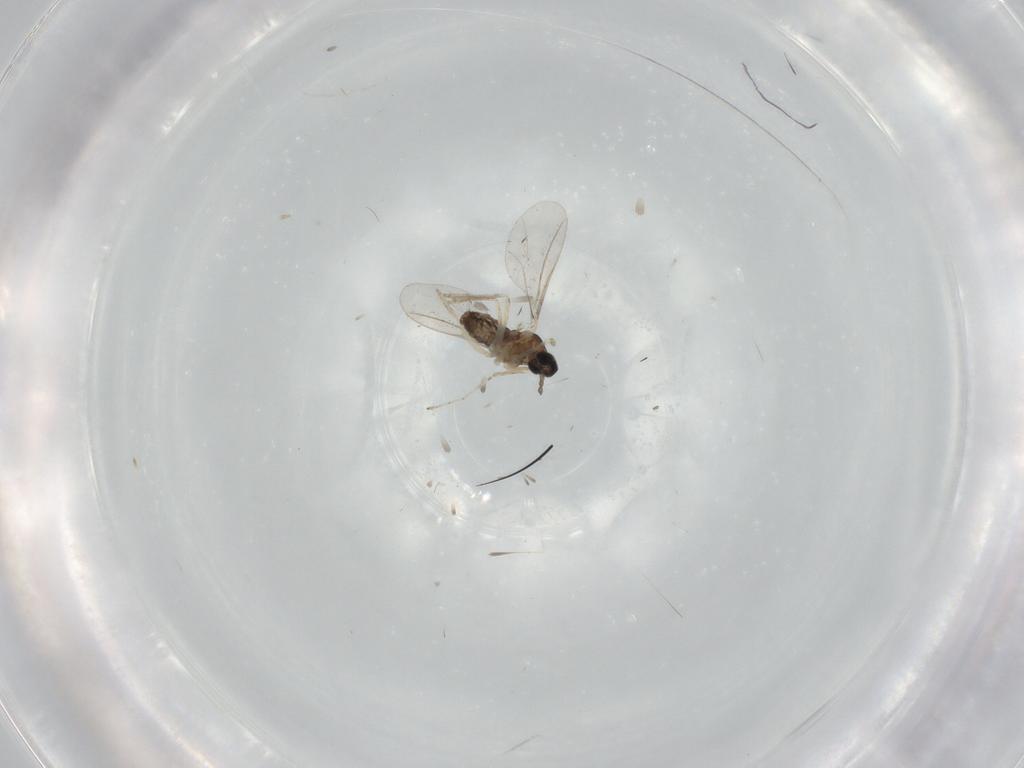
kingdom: Animalia
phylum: Arthropoda
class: Insecta
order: Diptera
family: Cecidomyiidae
